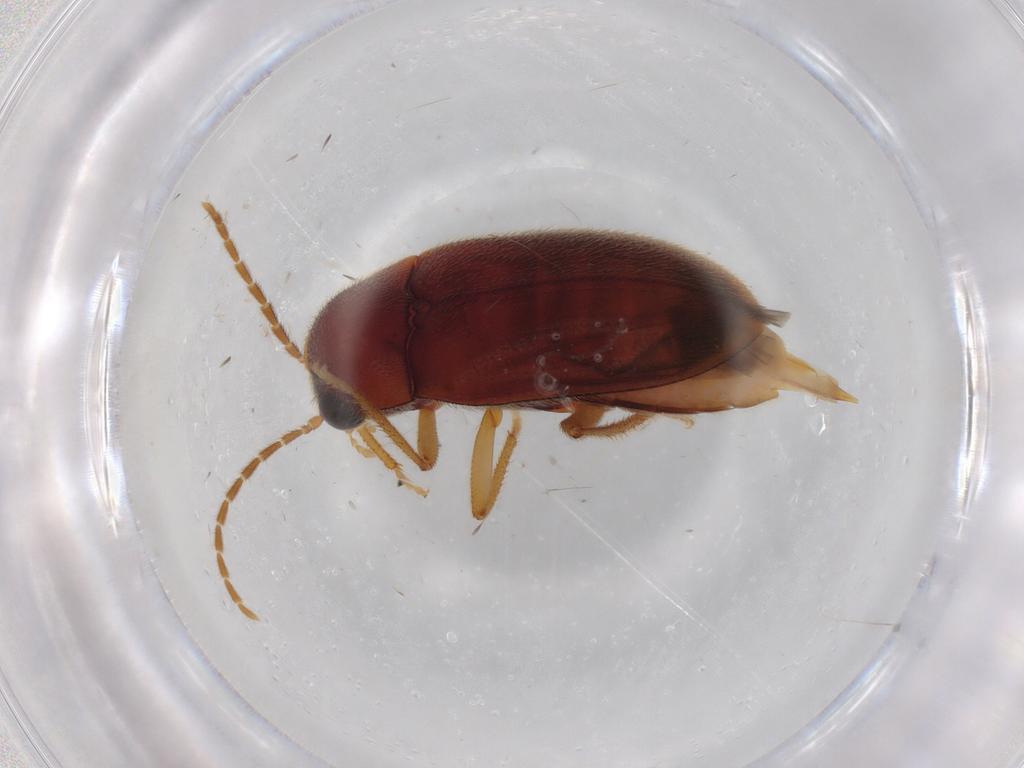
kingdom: Animalia
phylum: Arthropoda
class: Insecta
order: Coleoptera
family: Ptilodactylidae
